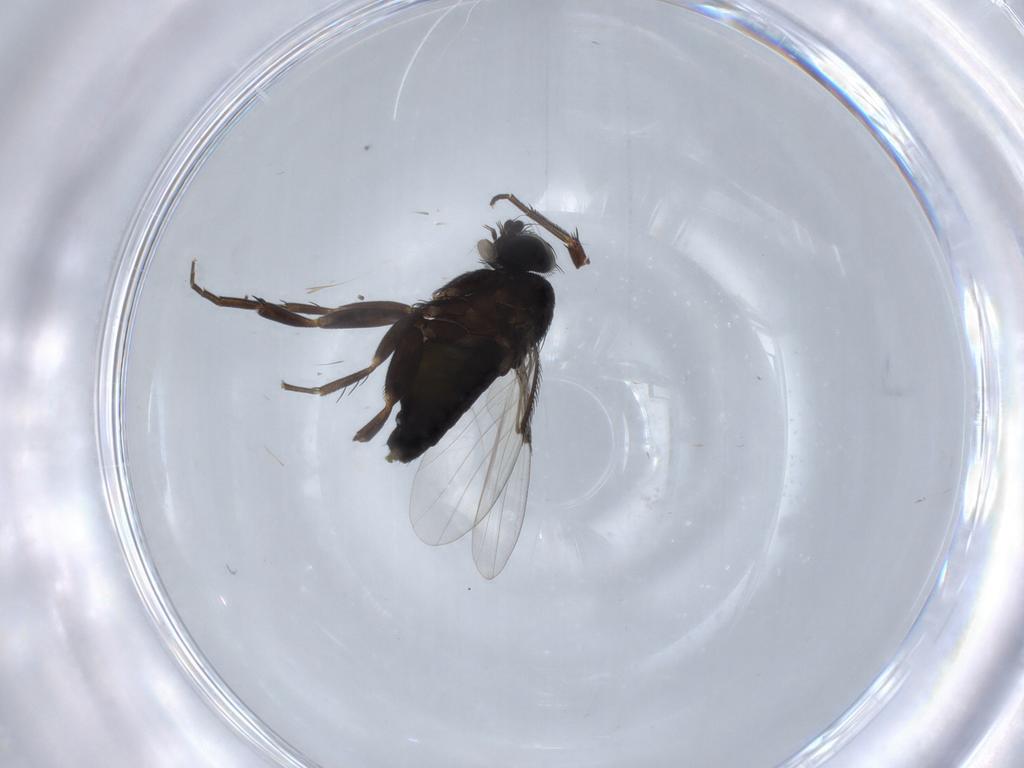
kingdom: Animalia
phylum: Arthropoda
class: Insecta
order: Diptera
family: Phoridae
